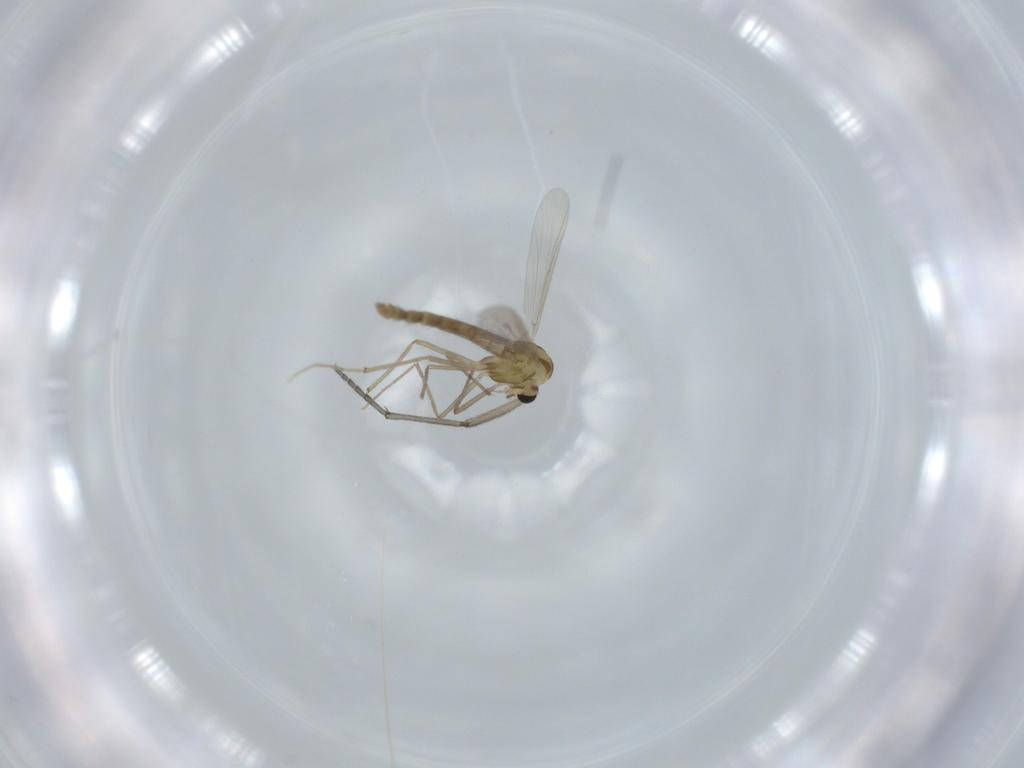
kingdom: Animalia
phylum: Arthropoda
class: Insecta
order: Diptera
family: Chironomidae
